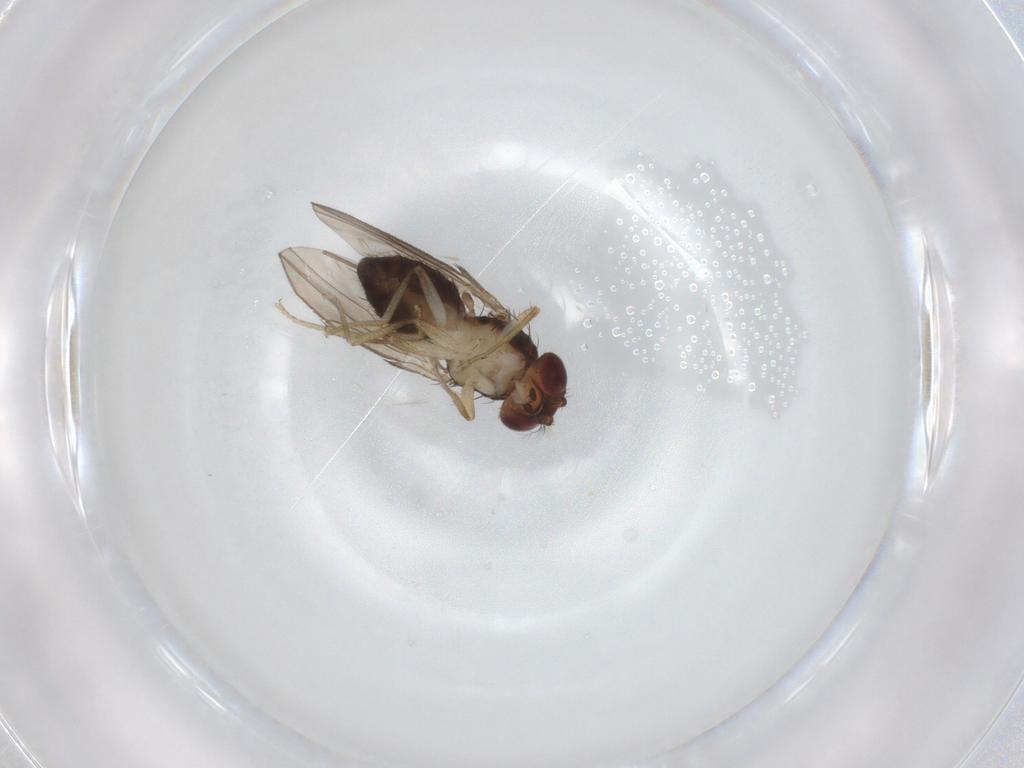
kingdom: Animalia
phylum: Arthropoda
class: Insecta
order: Diptera
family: Drosophilidae
